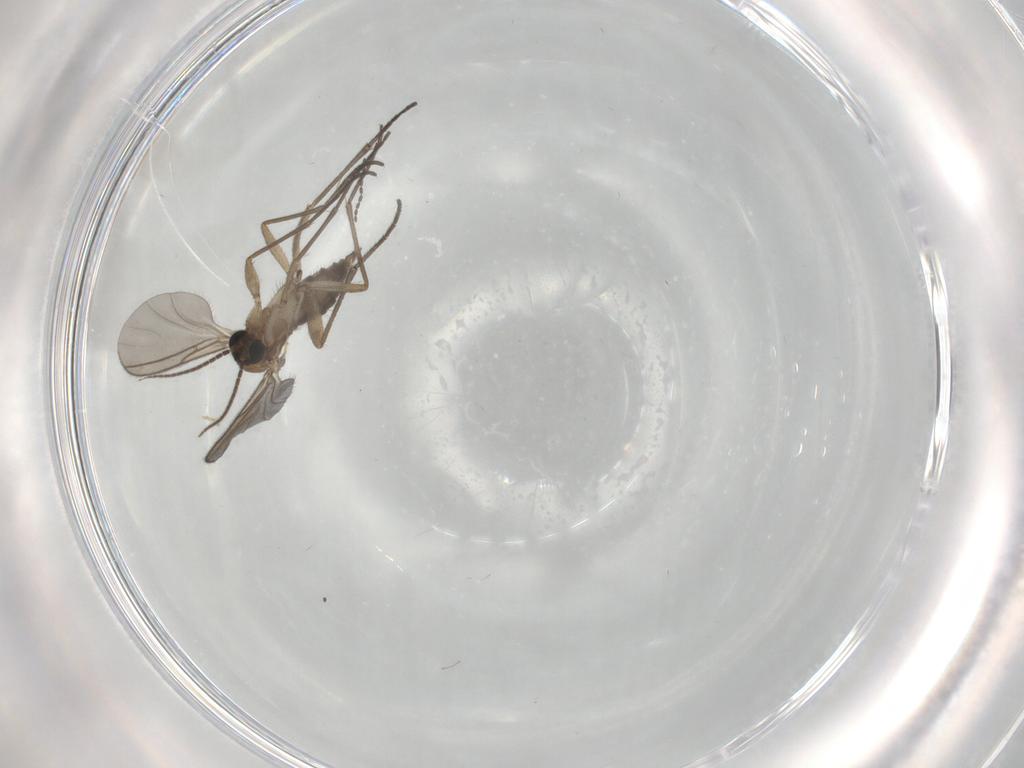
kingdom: Animalia
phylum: Arthropoda
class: Insecta
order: Diptera
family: Sciaridae
